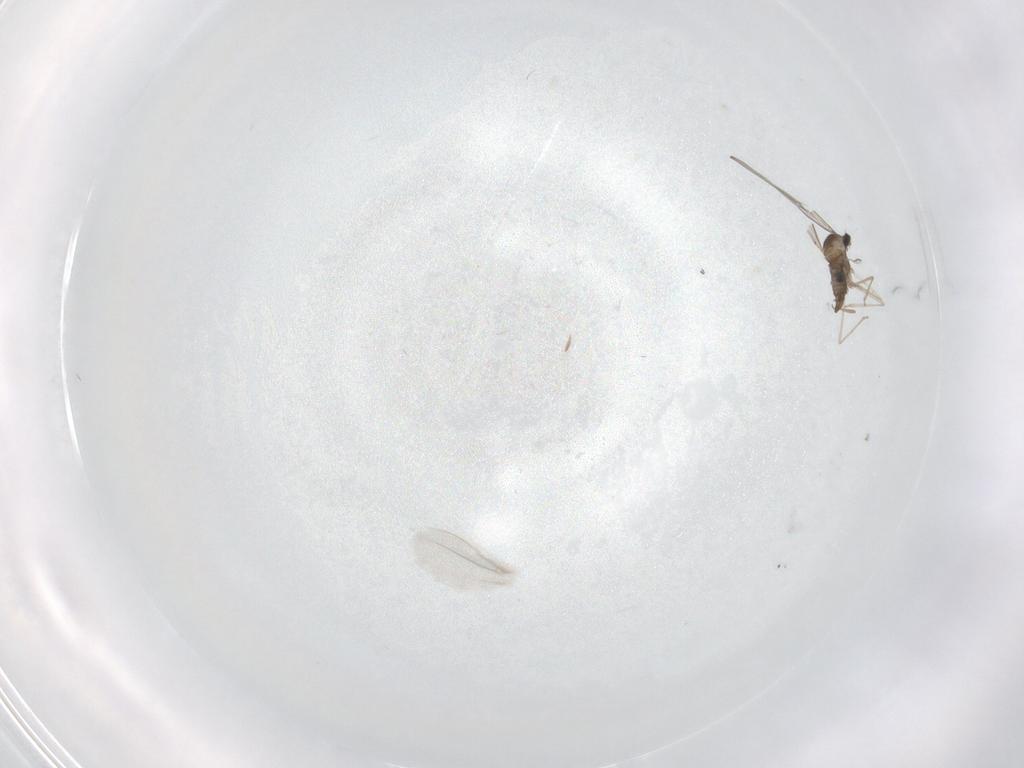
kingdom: Animalia
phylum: Arthropoda
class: Insecta
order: Diptera
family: Cecidomyiidae
